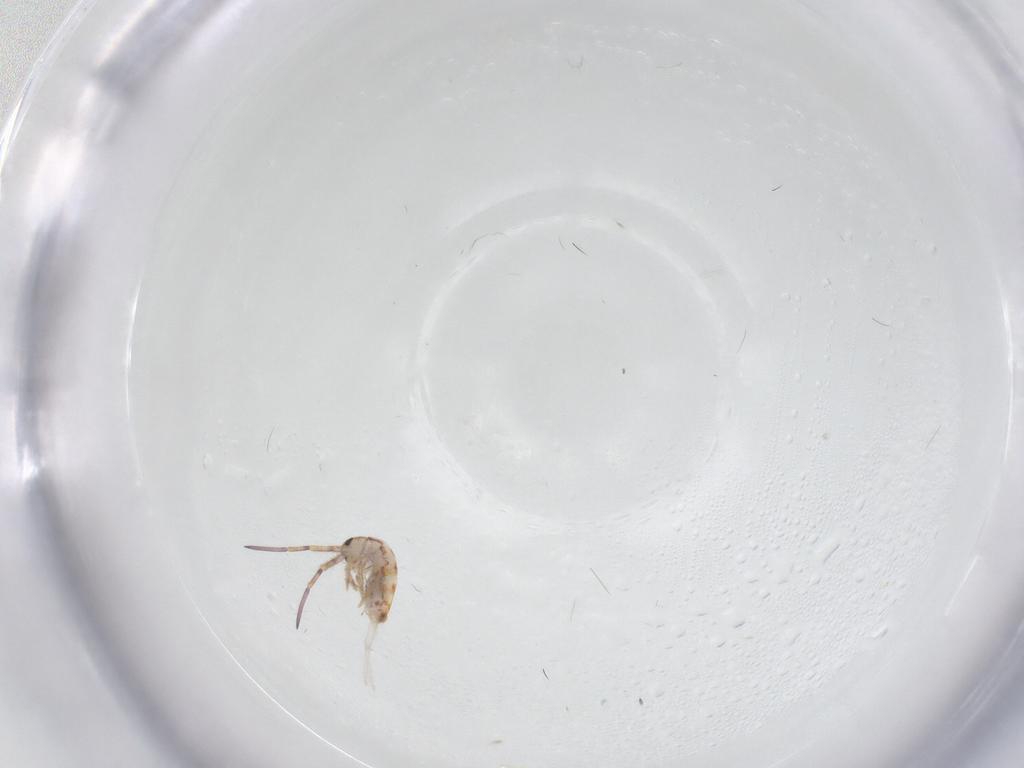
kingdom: Animalia
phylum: Arthropoda
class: Collembola
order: Entomobryomorpha
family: Entomobryidae
